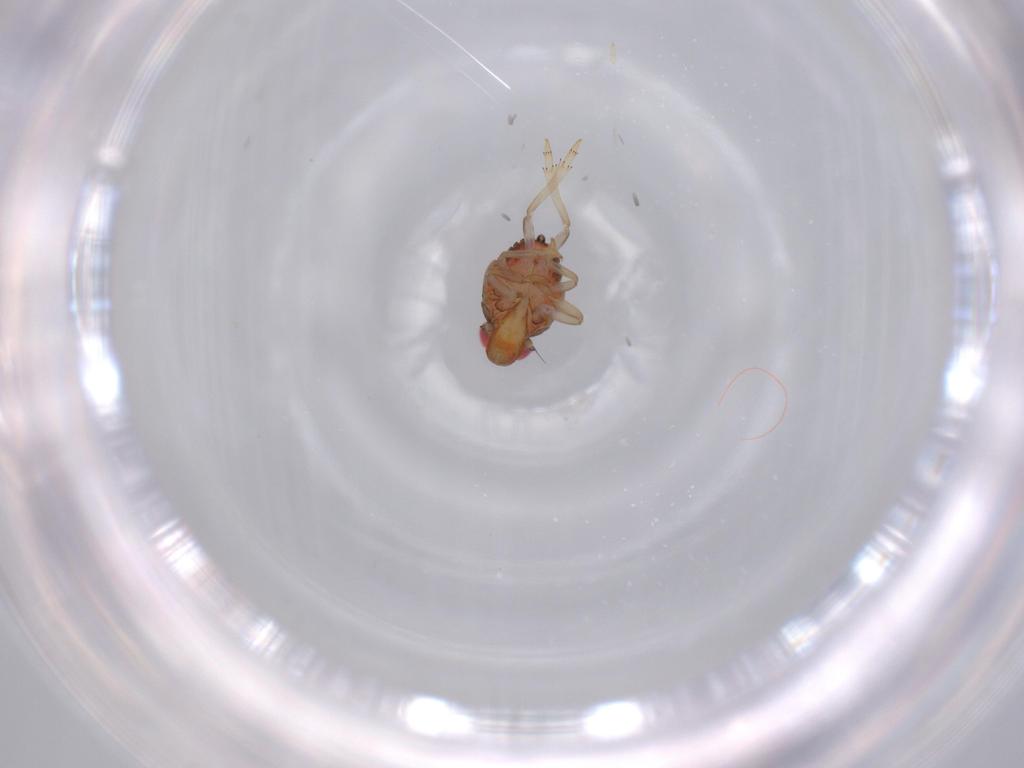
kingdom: Animalia
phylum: Arthropoda
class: Insecta
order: Hemiptera
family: Issidae
